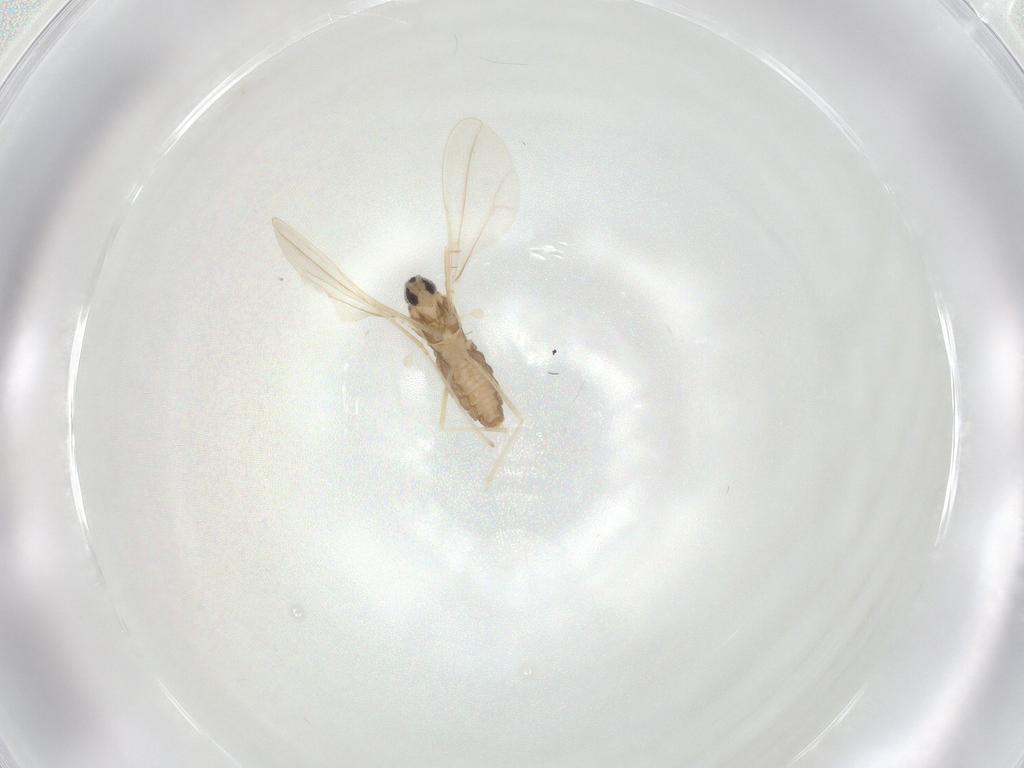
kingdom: Animalia
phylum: Arthropoda
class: Insecta
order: Diptera
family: Cecidomyiidae
